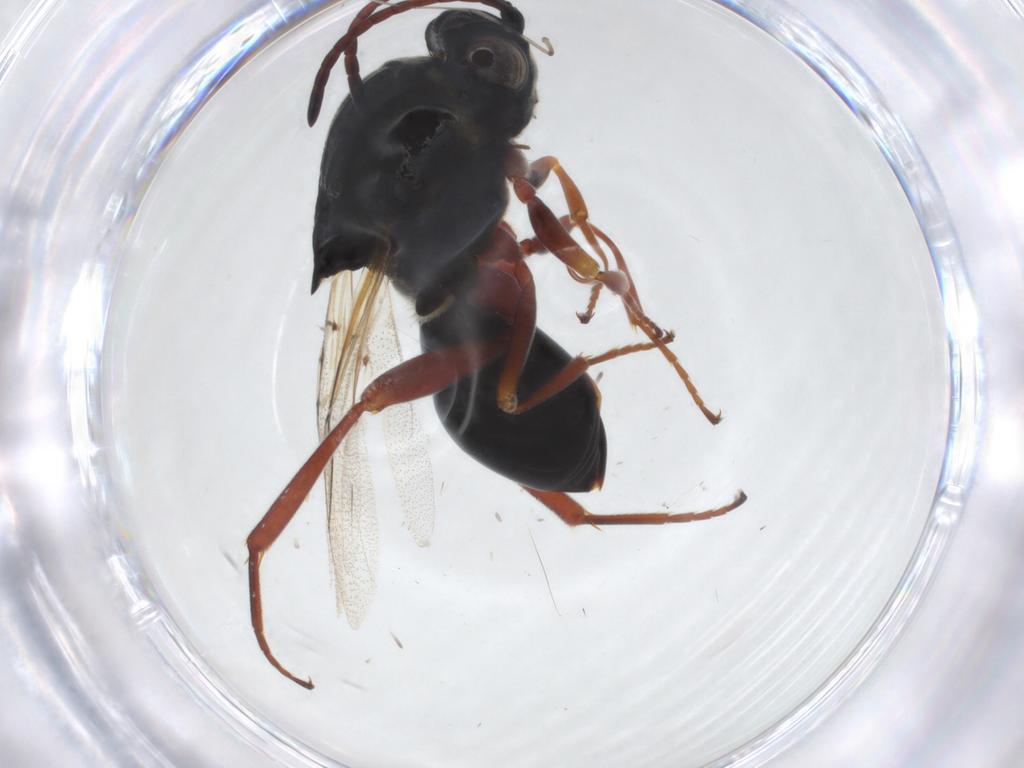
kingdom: Animalia
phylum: Arthropoda
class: Insecta
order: Hymenoptera
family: Figitidae
